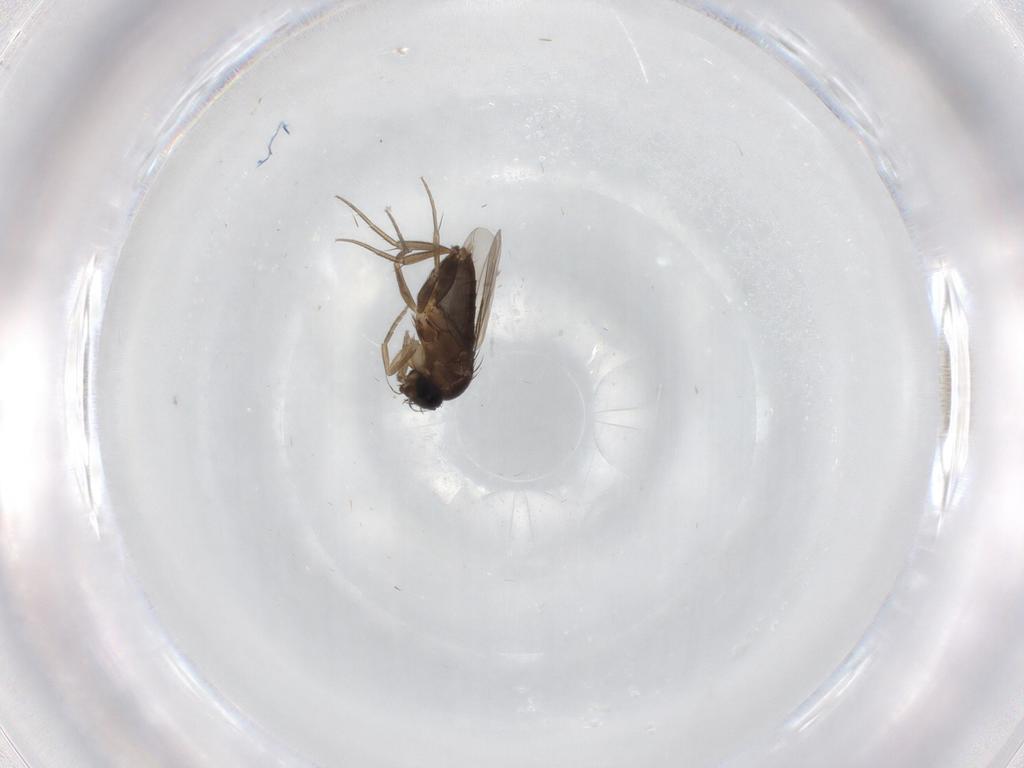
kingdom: Animalia
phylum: Arthropoda
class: Insecta
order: Diptera
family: Phoridae
